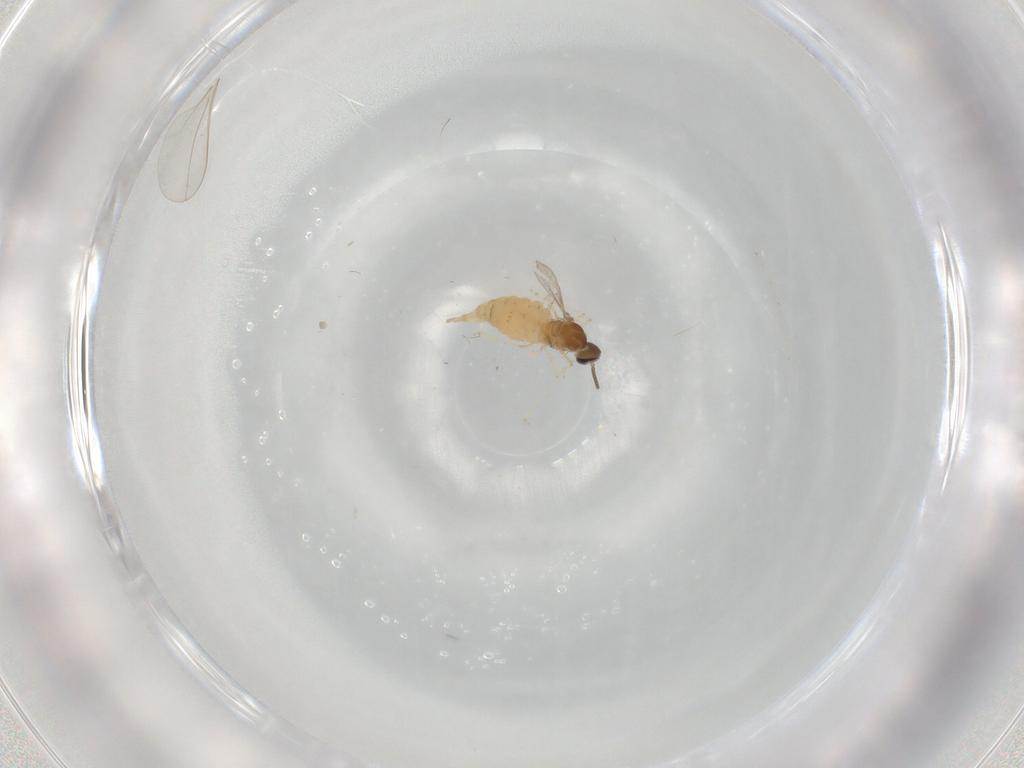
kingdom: Animalia
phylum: Arthropoda
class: Insecta
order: Diptera
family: Cecidomyiidae
